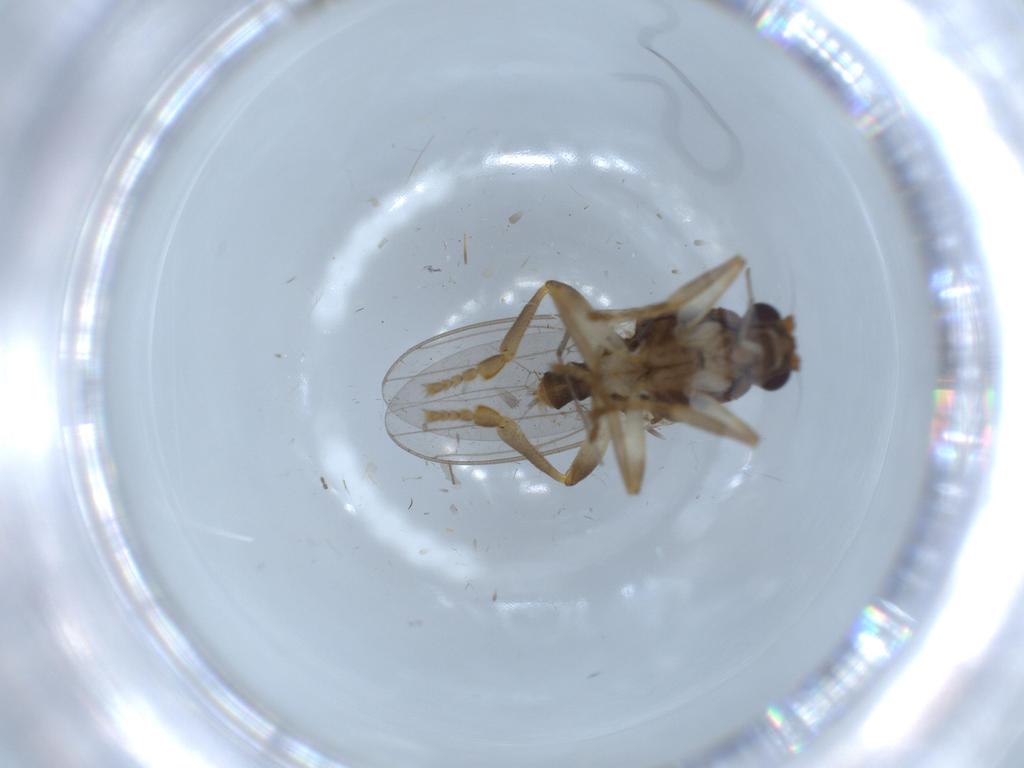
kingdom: Animalia
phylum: Arthropoda
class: Insecta
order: Diptera
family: Sphaeroceridae
